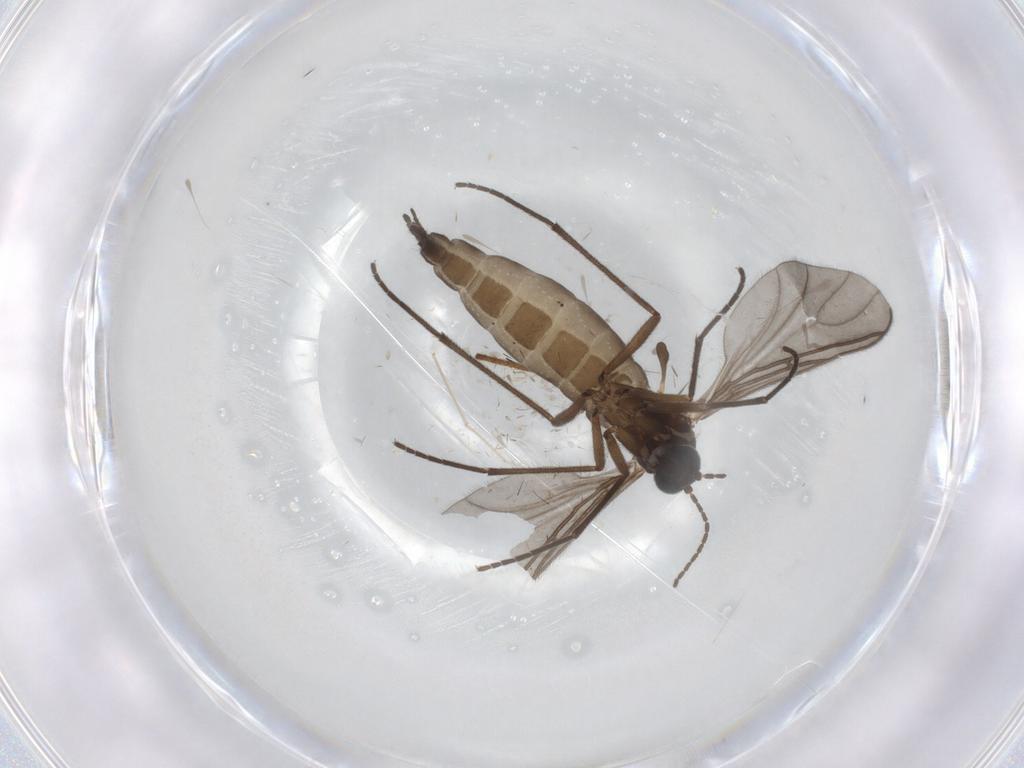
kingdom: Animalia
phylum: Arthropoda
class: Insecta
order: Diptera
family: Sciaridae
